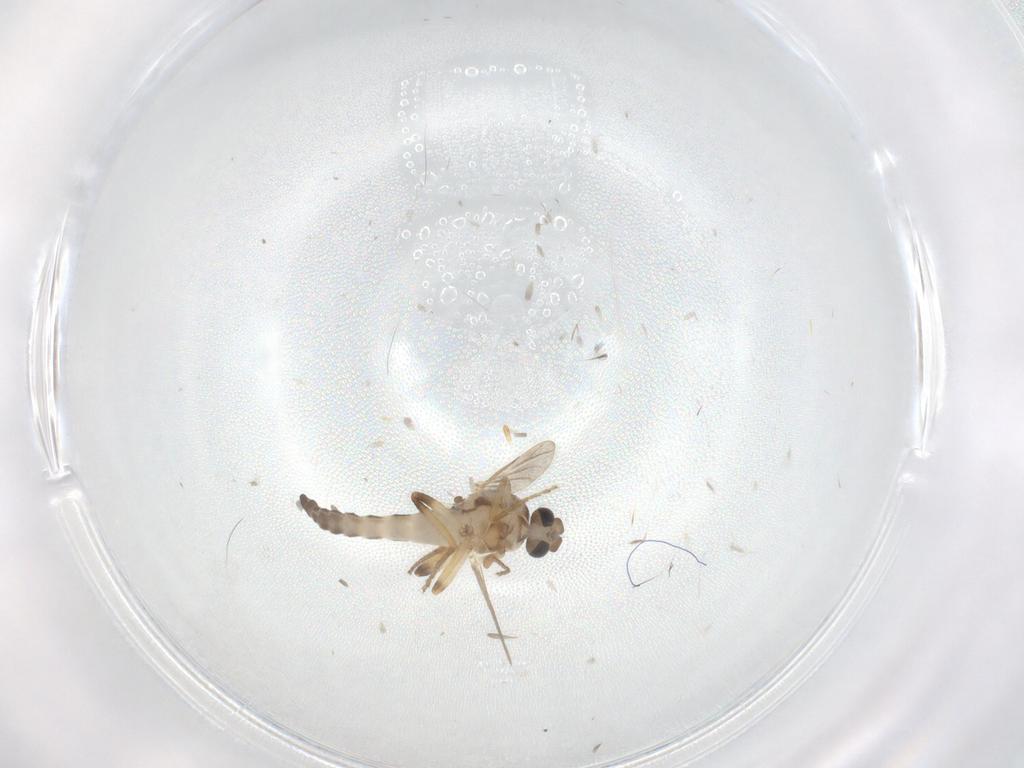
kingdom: Animalia
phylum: Arthropoda
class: Insecta
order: Diptera
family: Ceratopogonidae
